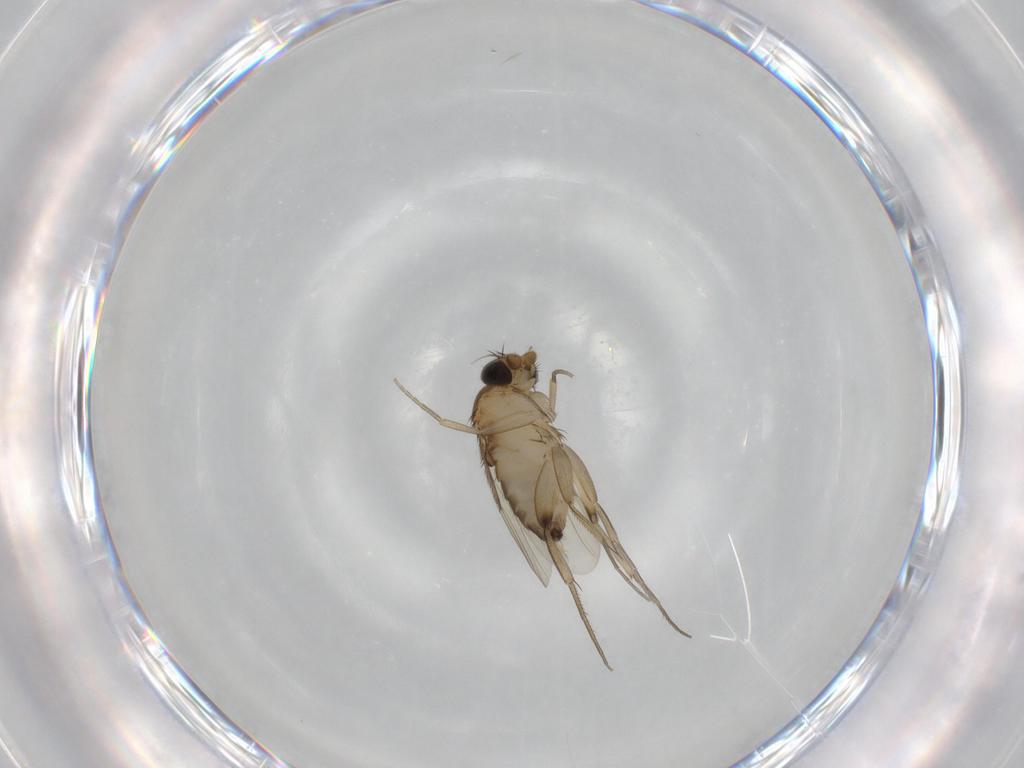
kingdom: Animalia
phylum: Arthropoda
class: Insecta
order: Diptera
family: Phoridae
